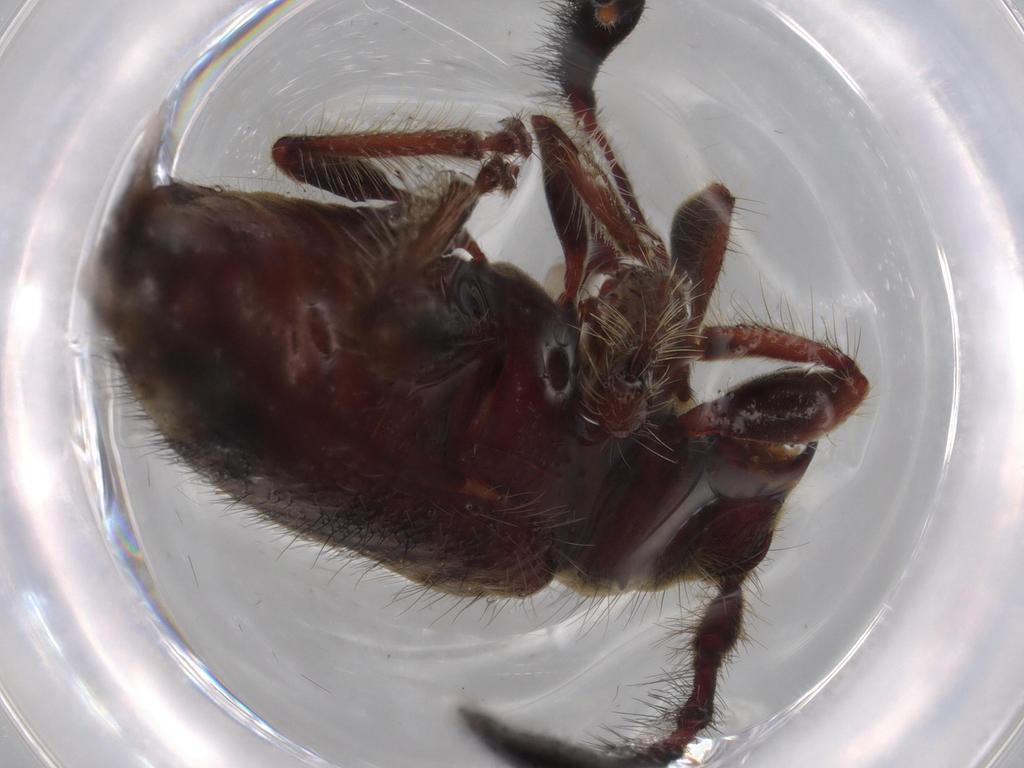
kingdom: Animalia
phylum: Arthropoda
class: Insecta
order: Coleoptera
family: Cerambycidae
